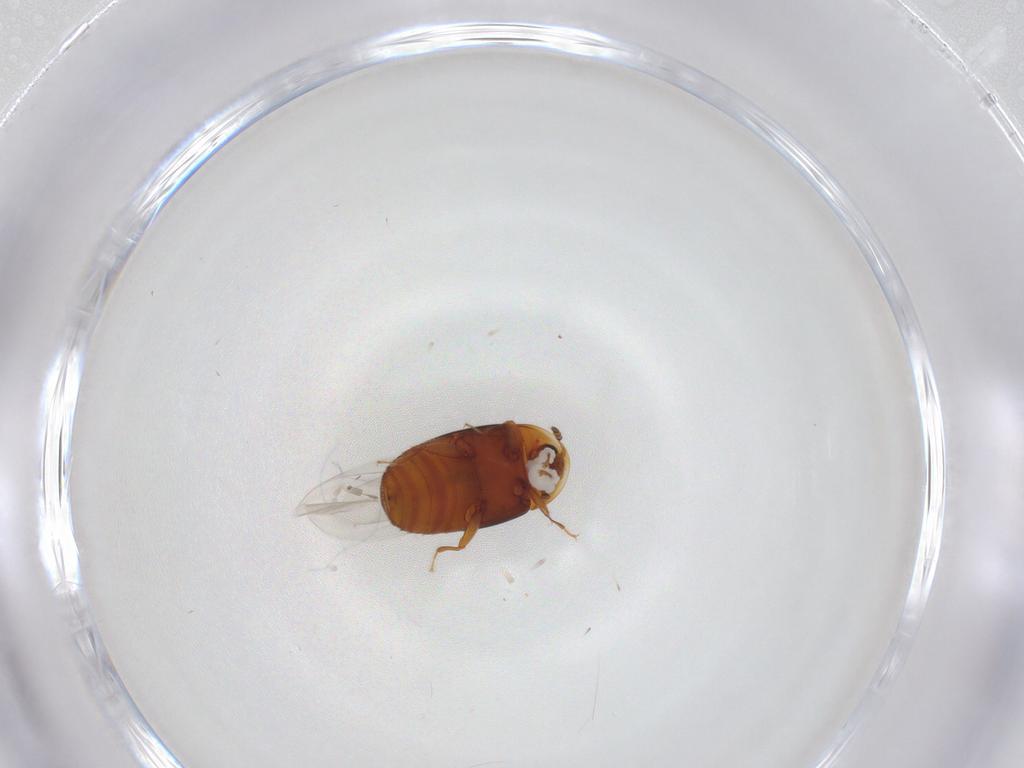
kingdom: Animalia
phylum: Arthropoda
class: Insecta
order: Coleoptera
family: Corylophidae
